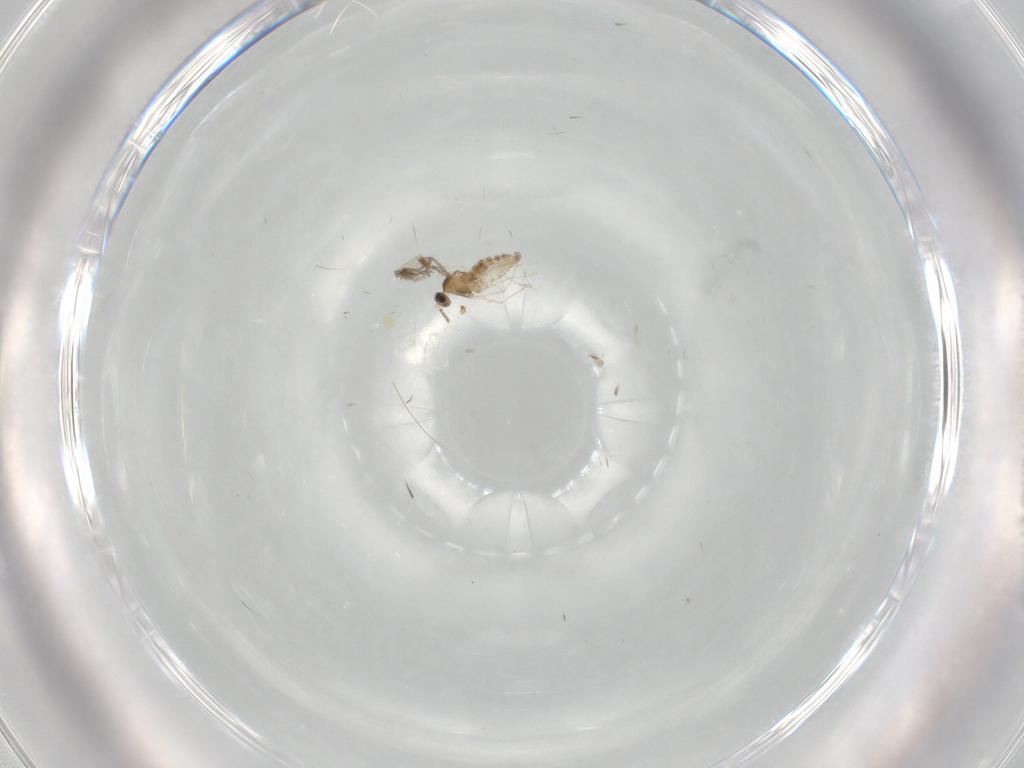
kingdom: Animalia
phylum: Arthropoda
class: Insecta
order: Diptera
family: Cecidomyiidae
